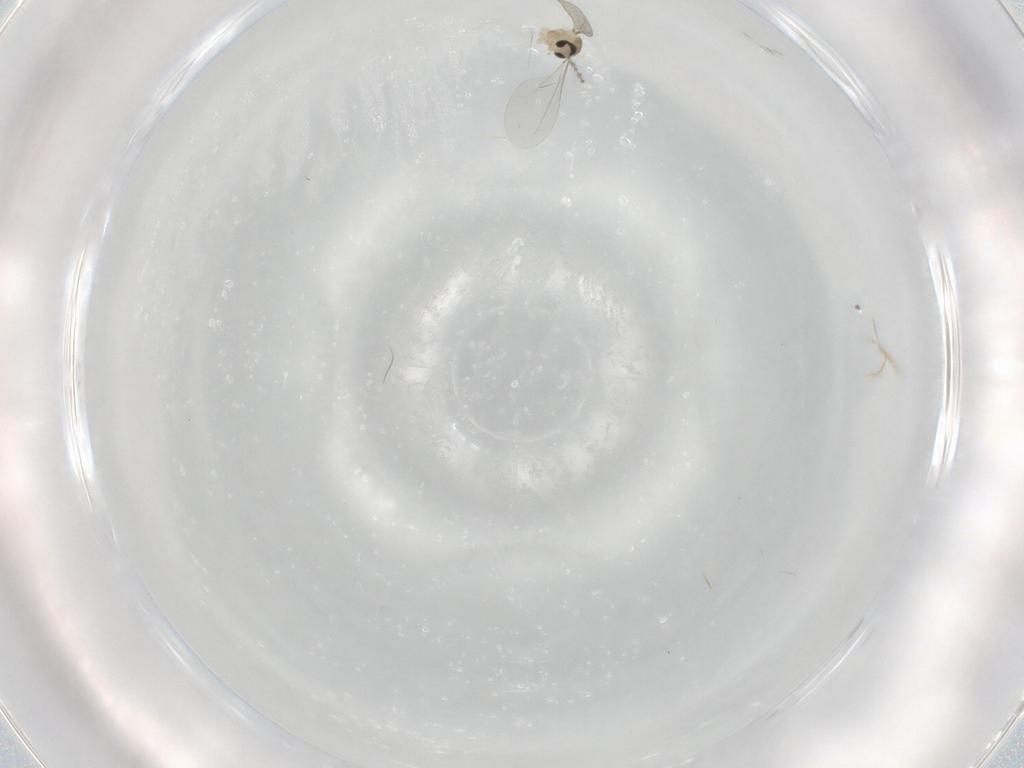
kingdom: Animalia
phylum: Arthropoda
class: Insecta
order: Diptera
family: Cecidomyiidae
